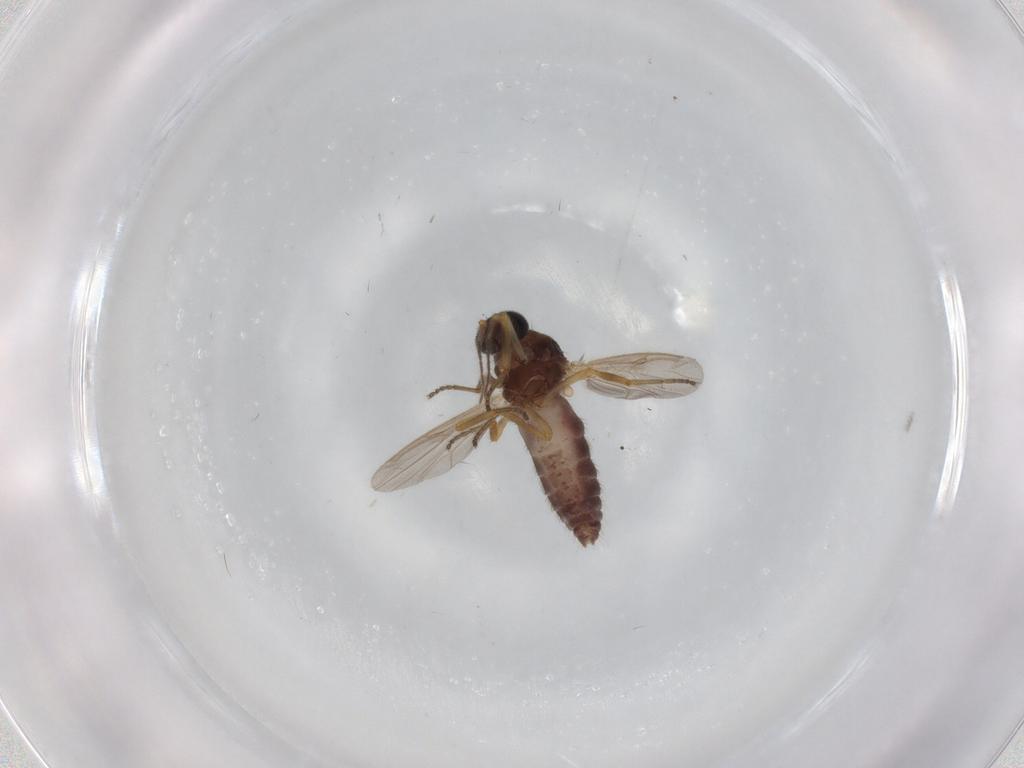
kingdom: Animalia
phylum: Arthropoda
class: Insecta
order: Diptera
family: Ceratopogonidae
